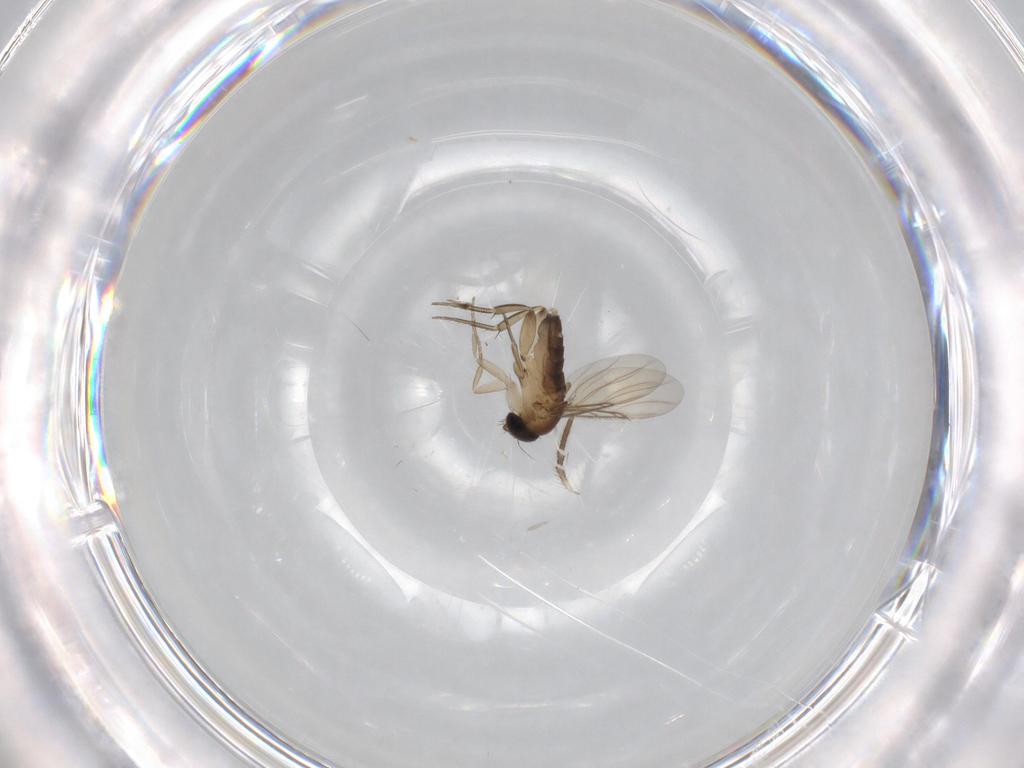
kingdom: Animalia
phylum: Arthropoda
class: Insecta
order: Diptera
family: Phoridae
